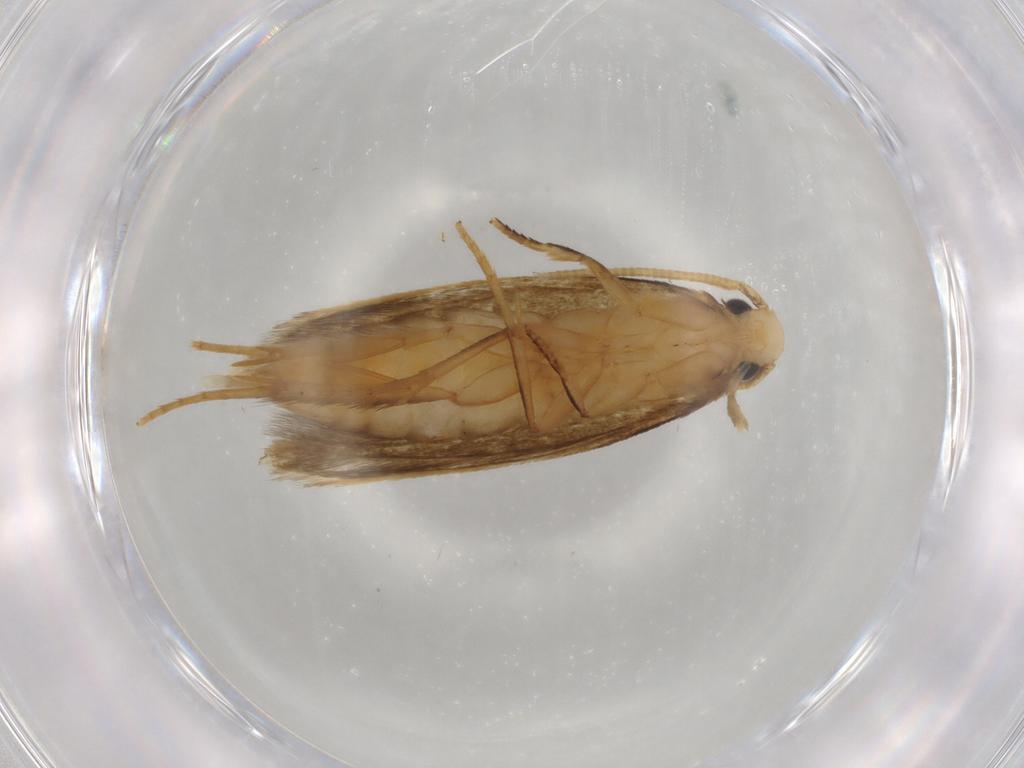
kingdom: Animalia
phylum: Arthropoda
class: Insecta
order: Lepidoptera
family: Tineidae
